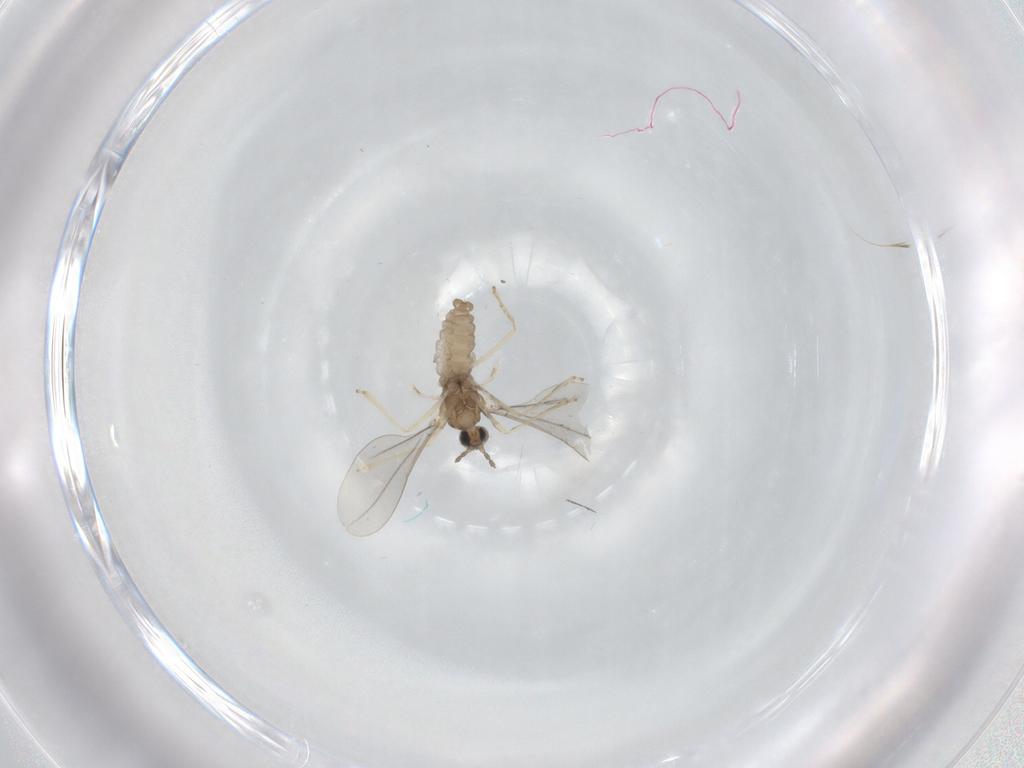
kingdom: Animalia
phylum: Arthropoda
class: Insecta
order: Diptera
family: Cecidomyiidae
